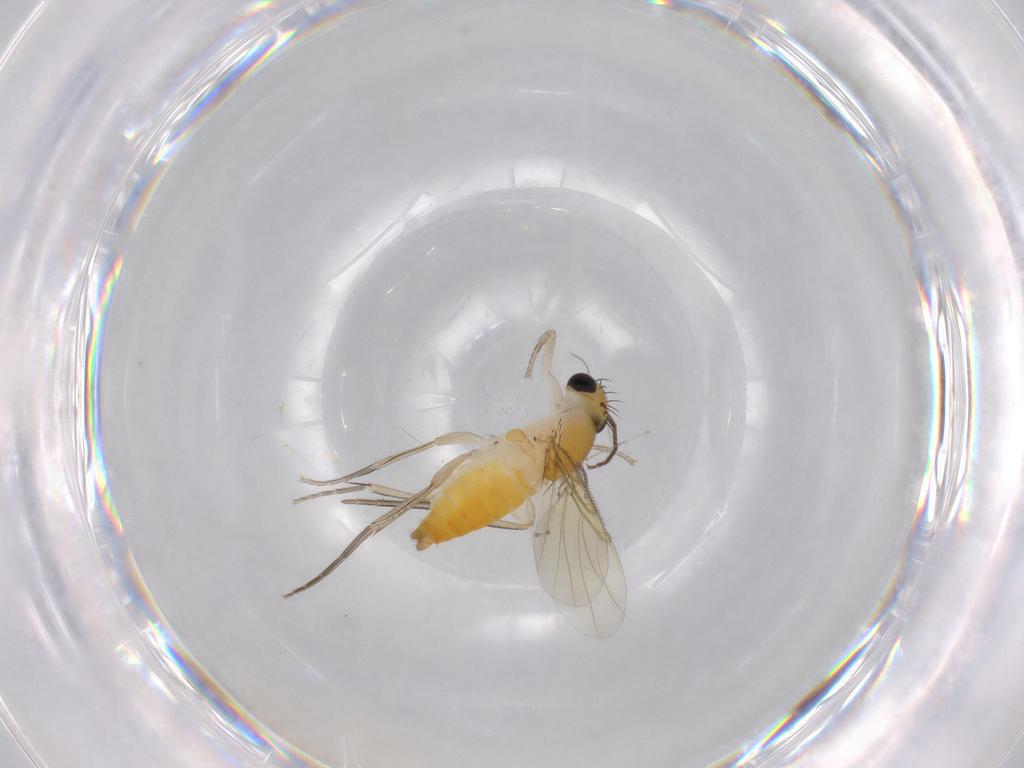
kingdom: Animalia
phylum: Arthropoda
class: Insecta
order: Diptera
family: Phoridae
